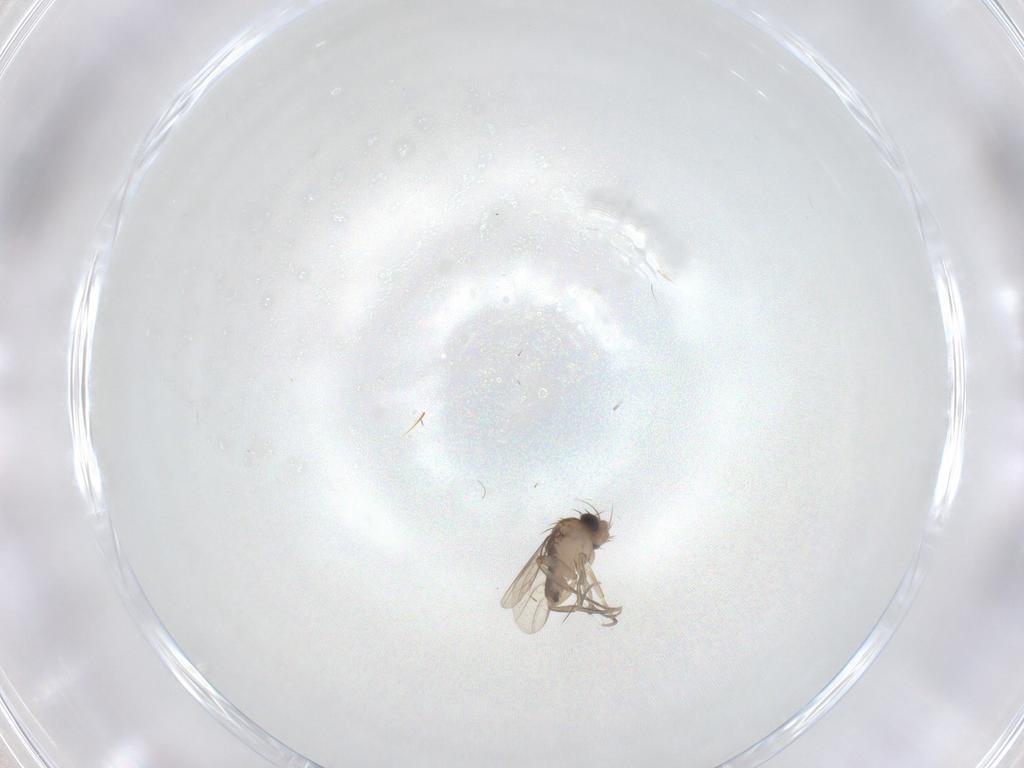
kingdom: Animalia
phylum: Arthropoda
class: Insecta
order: Diptera
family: Phoridae
